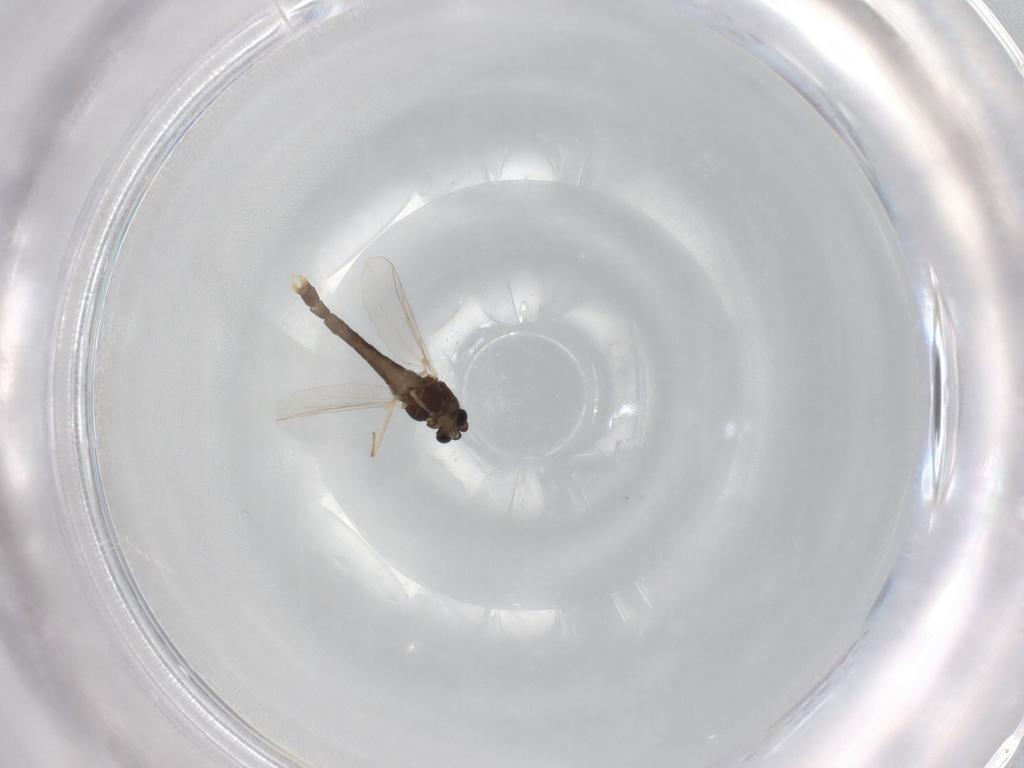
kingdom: Animalia
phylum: Arthropoda
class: Insecta
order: Diptera
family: Chironomidae
